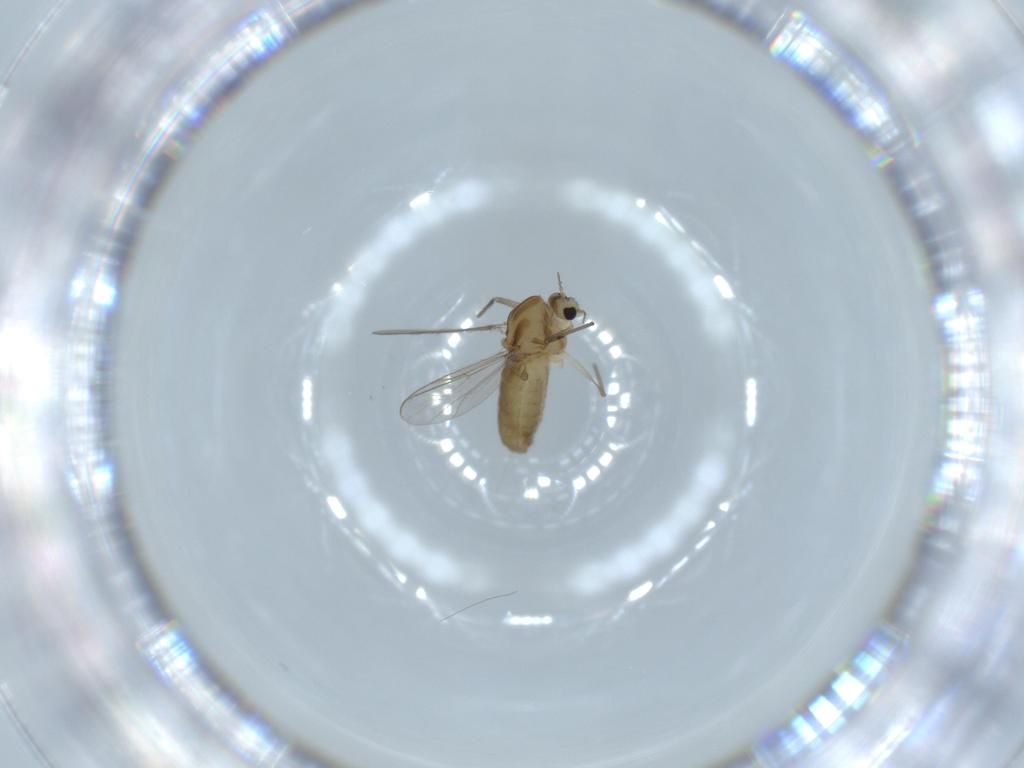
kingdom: Animalia
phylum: Arthropoda
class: Insecta
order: Diptera
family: Chironomidae
